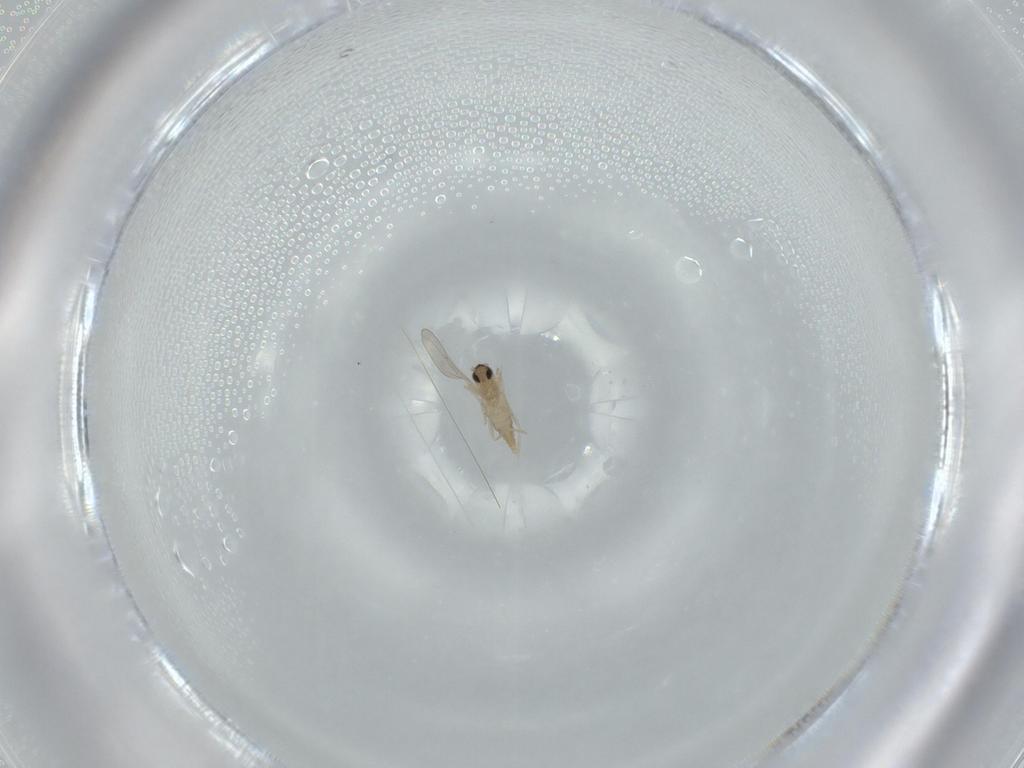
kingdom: Animalia
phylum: Arthropoda
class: Insecta
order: Diptera
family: Cecidomyiidae
